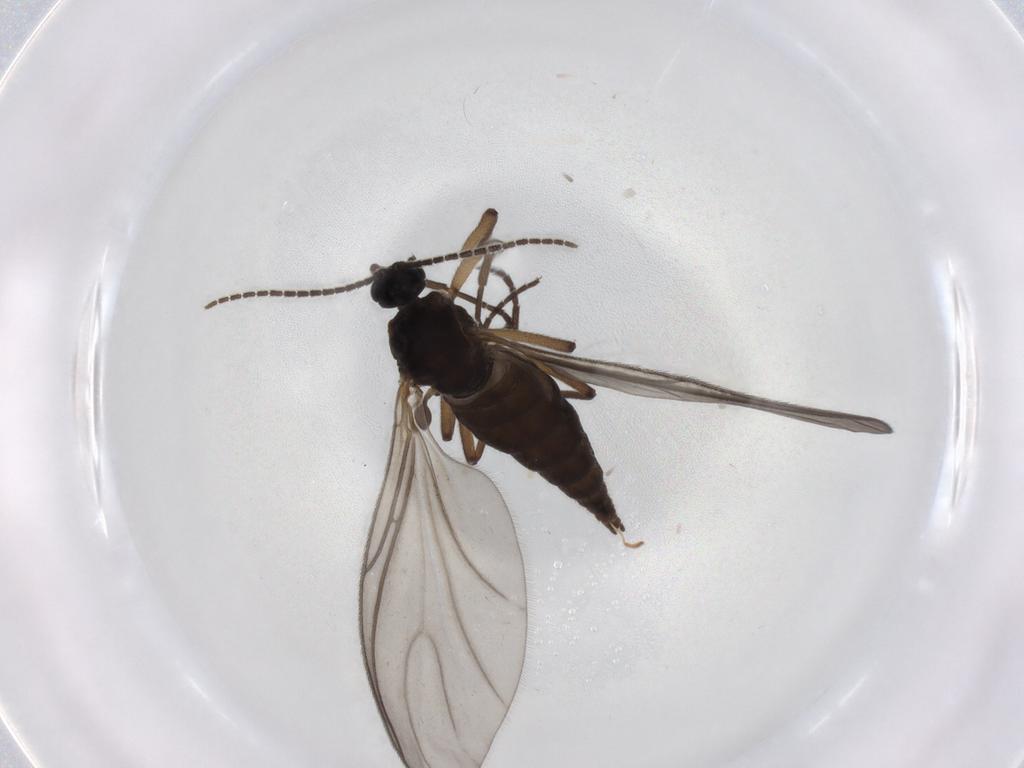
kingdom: Animalia
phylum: Arthropoda
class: Insecta
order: Diptera
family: Sciaridae
